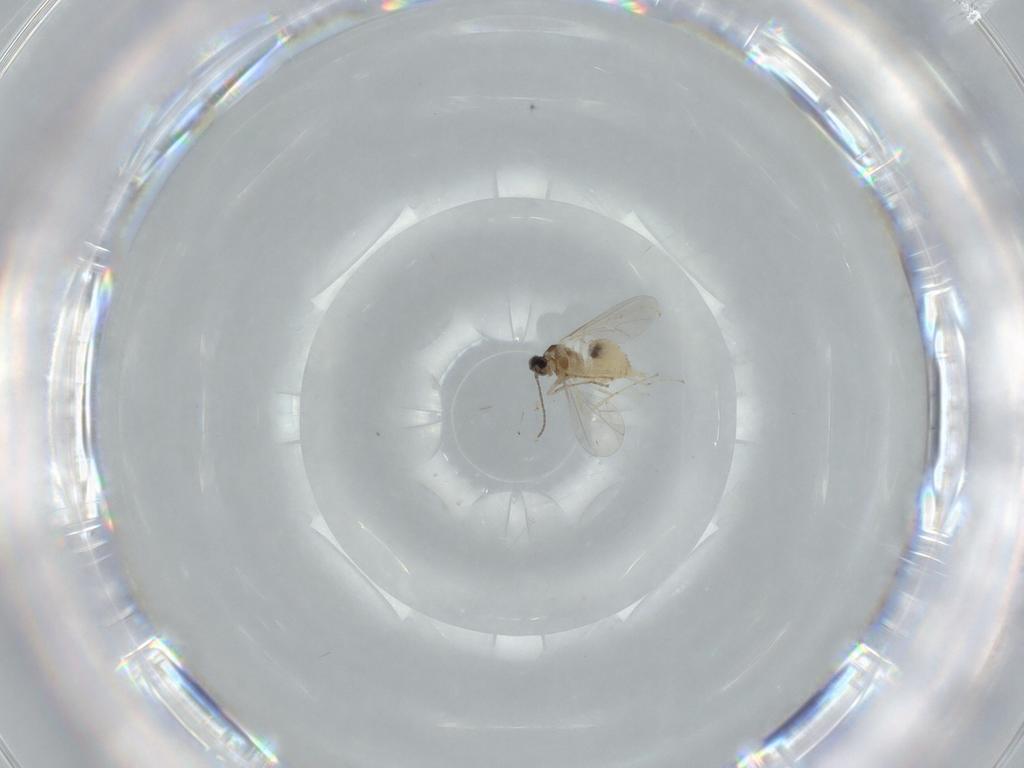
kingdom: Animalia
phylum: Arthropoda
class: Insecta
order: Diptera
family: Cecidomyiidae
